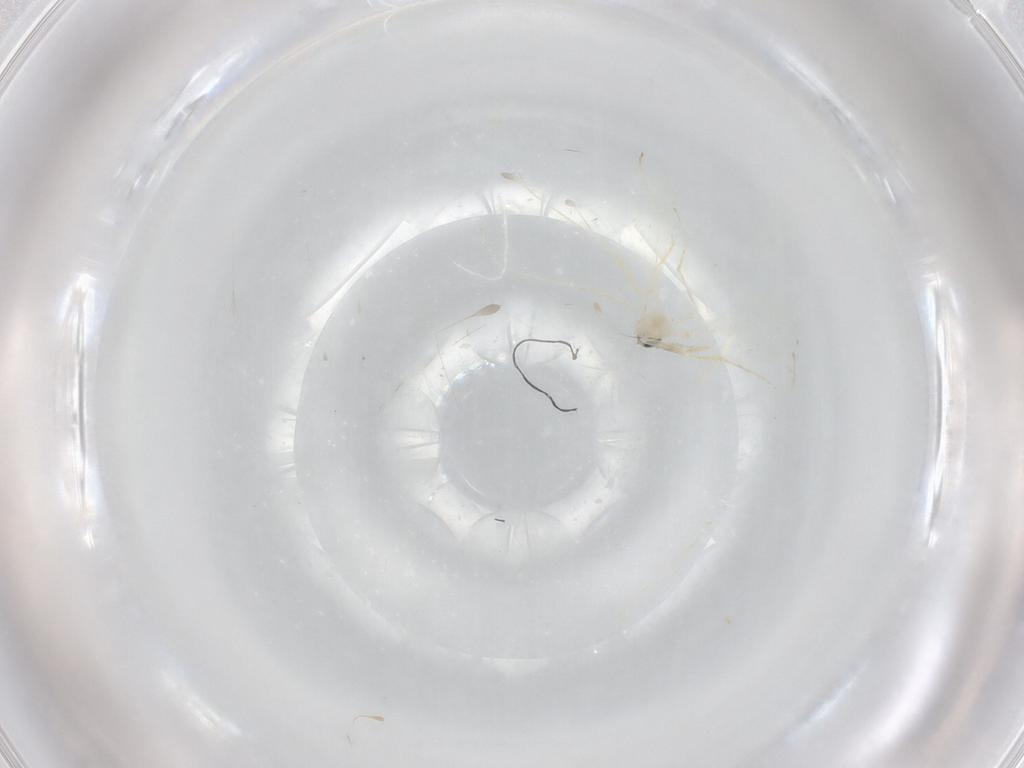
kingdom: Animalia
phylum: Arthropoda
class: Insecta
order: Diptera
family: Cecidomyiidae
